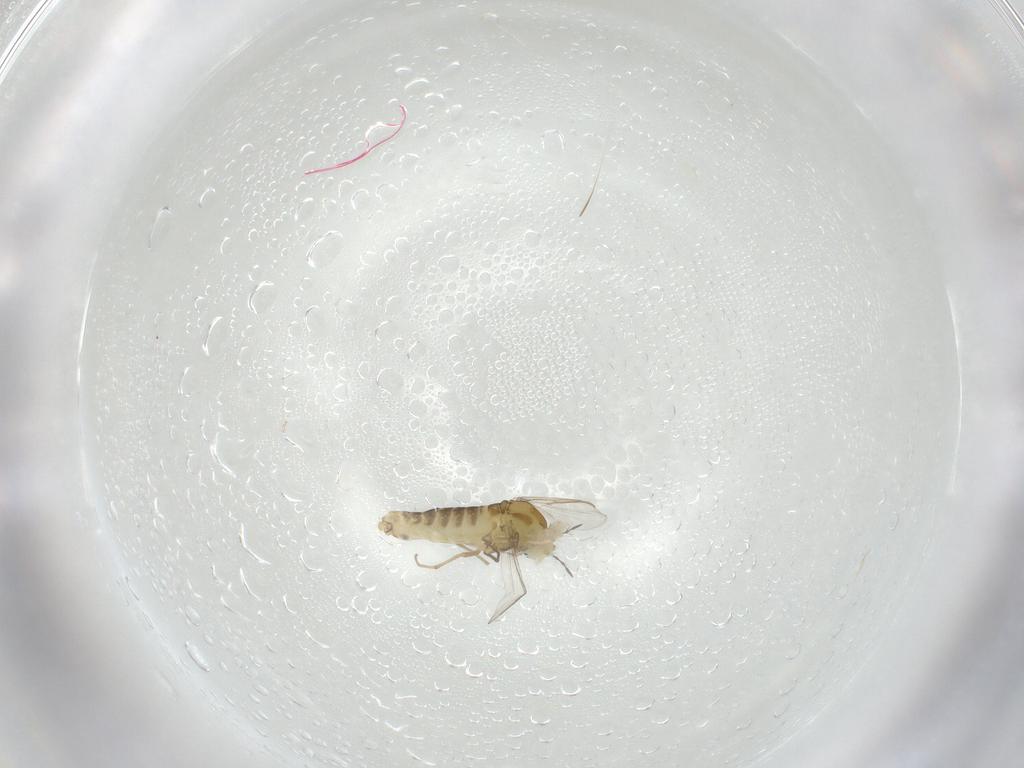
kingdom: Animalia
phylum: Arthropoda
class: Insecta
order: Diptera
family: Chironomidae
